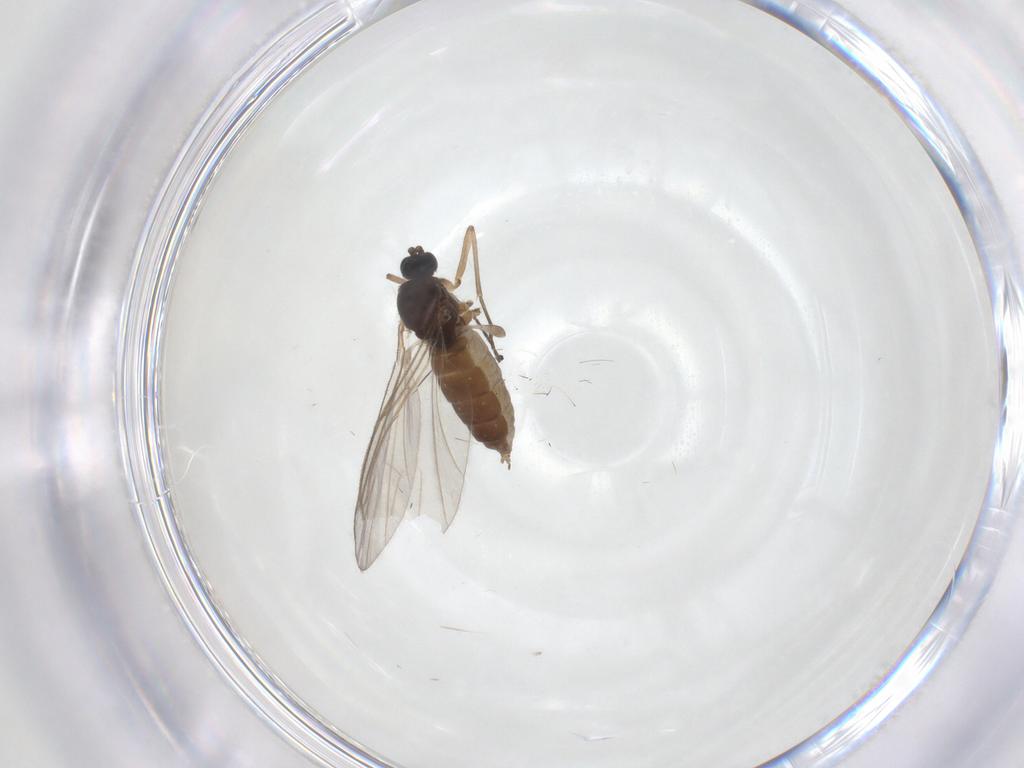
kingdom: Animalia
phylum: Arthropoda
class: Insecta
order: Diptera
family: Sciaridae
